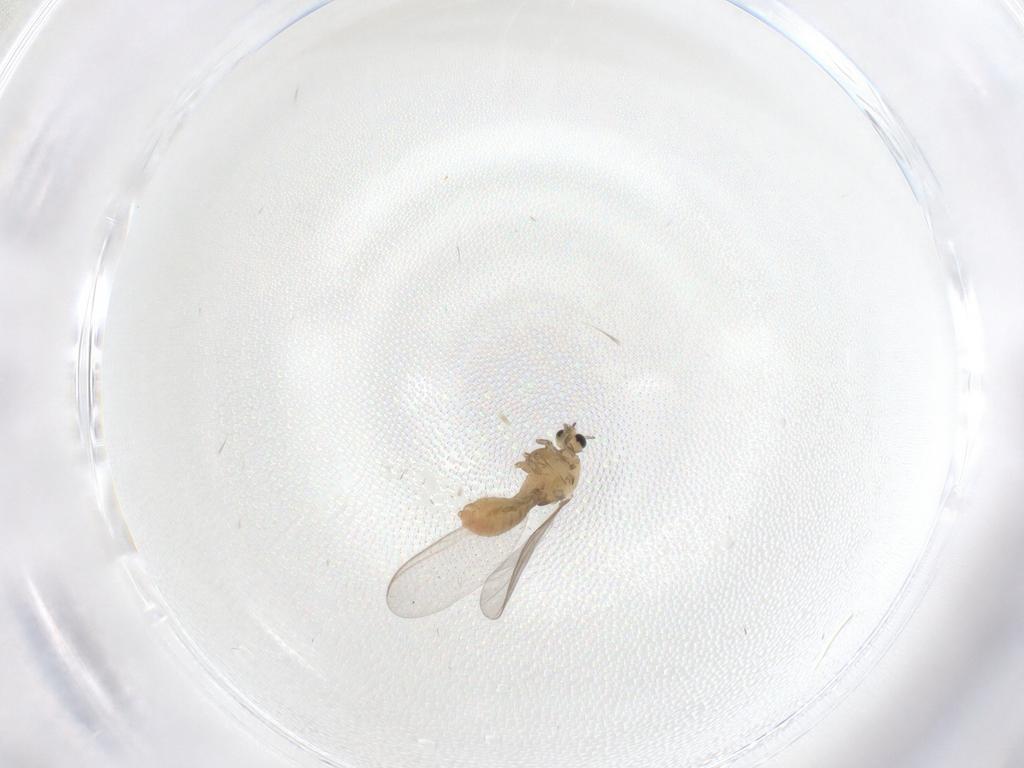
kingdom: Animalia
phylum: Arthropoda
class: Insecta
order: Diptera
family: Chironomidae
